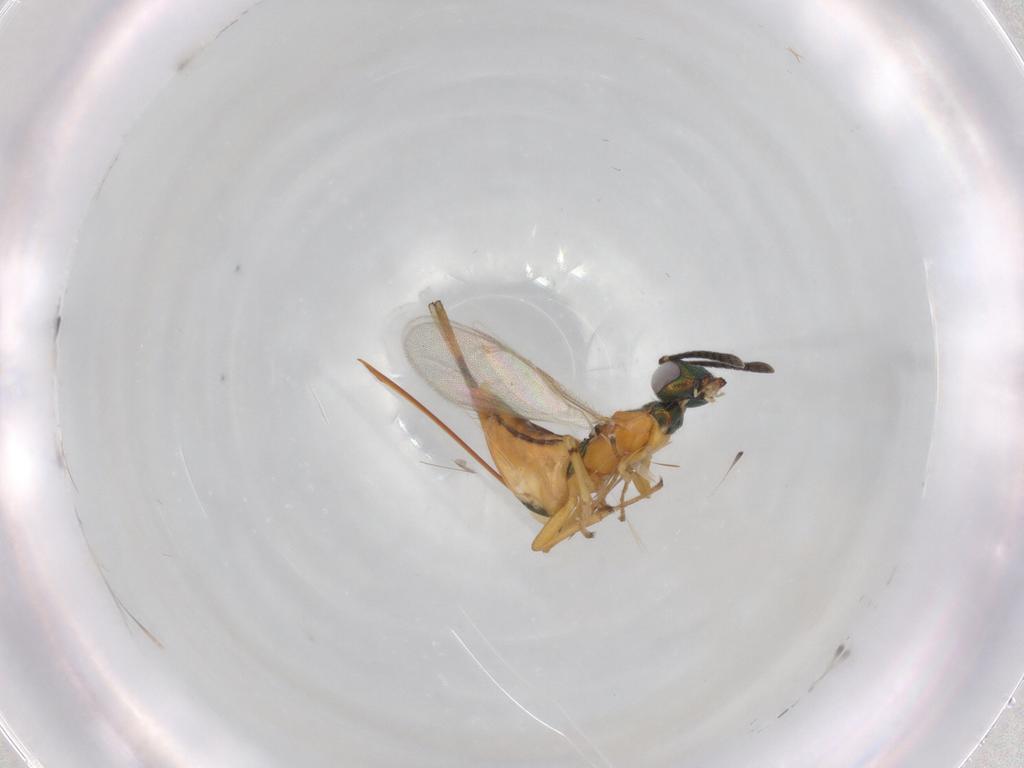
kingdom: Animalia
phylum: Arthropoda
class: Insecta
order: Hymenoptera
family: Eupelmidae
